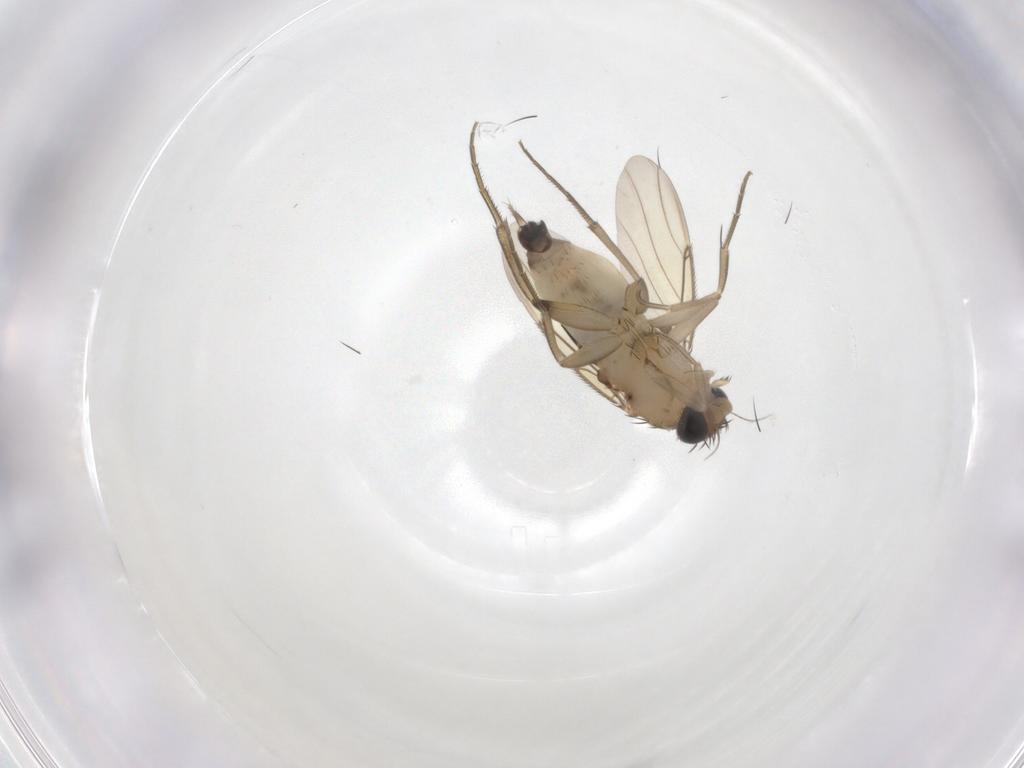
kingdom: Animalia
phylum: Arthropoda
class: Insecta
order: Diptera
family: Phoridae
